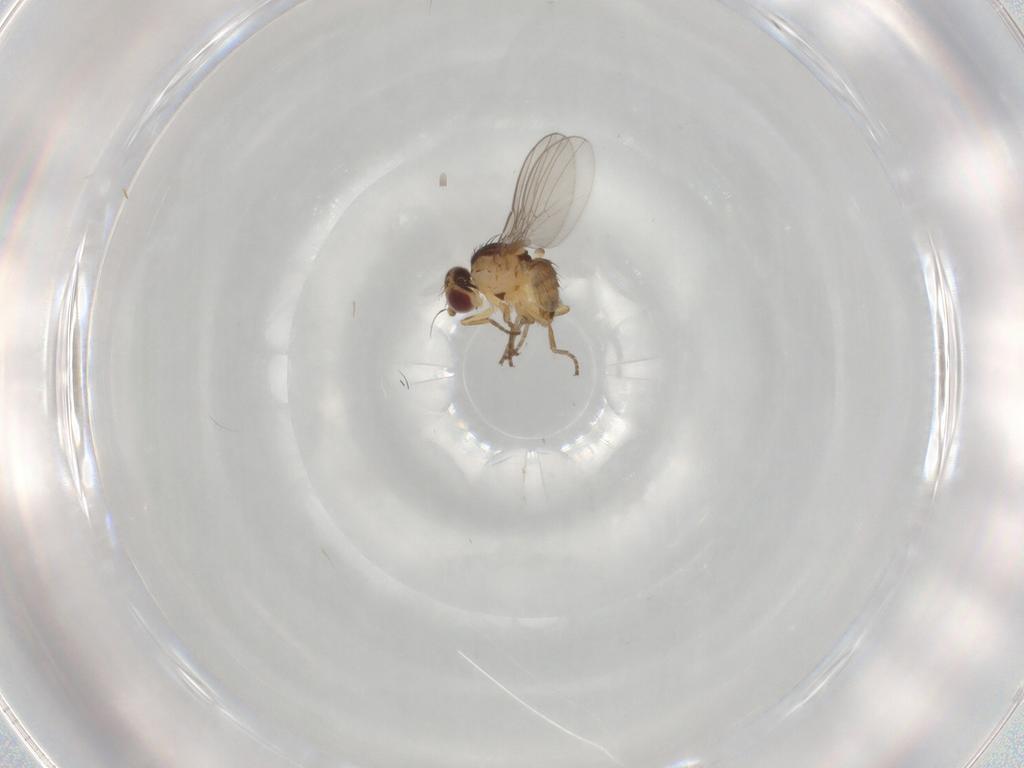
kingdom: Animalia
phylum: Arthropoda
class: Insecta
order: Diptera
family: Agromyzidae
